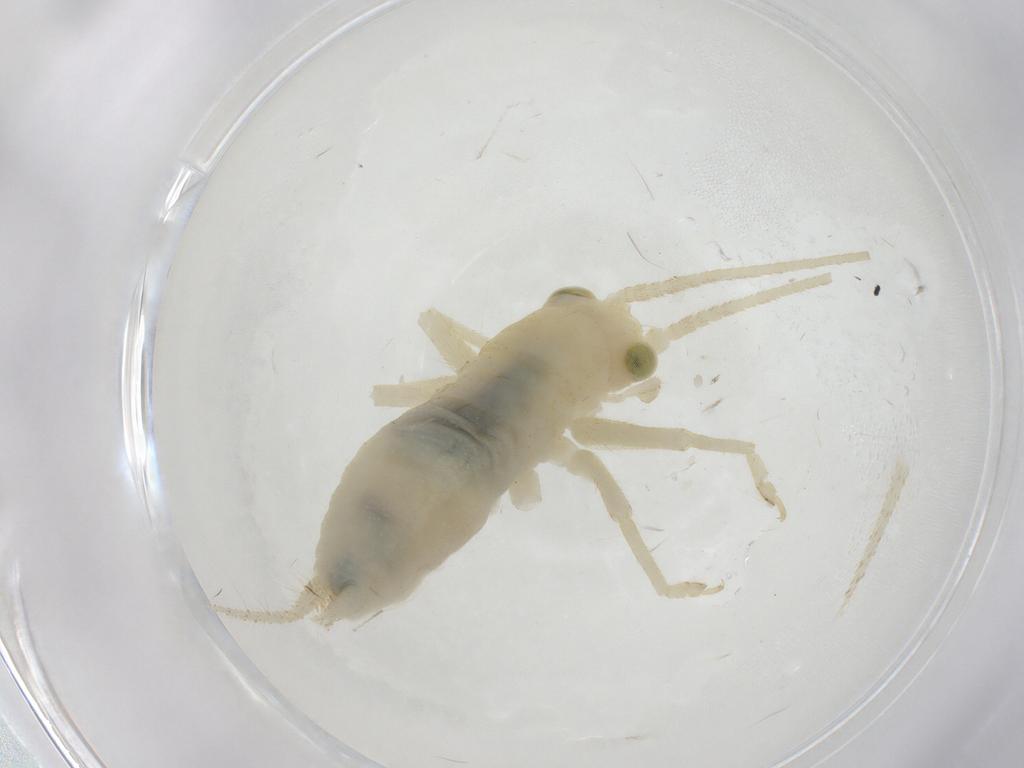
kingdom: Animalia
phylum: Arthropoda
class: Insecta
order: Orthoptera
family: Trigonidiidae
